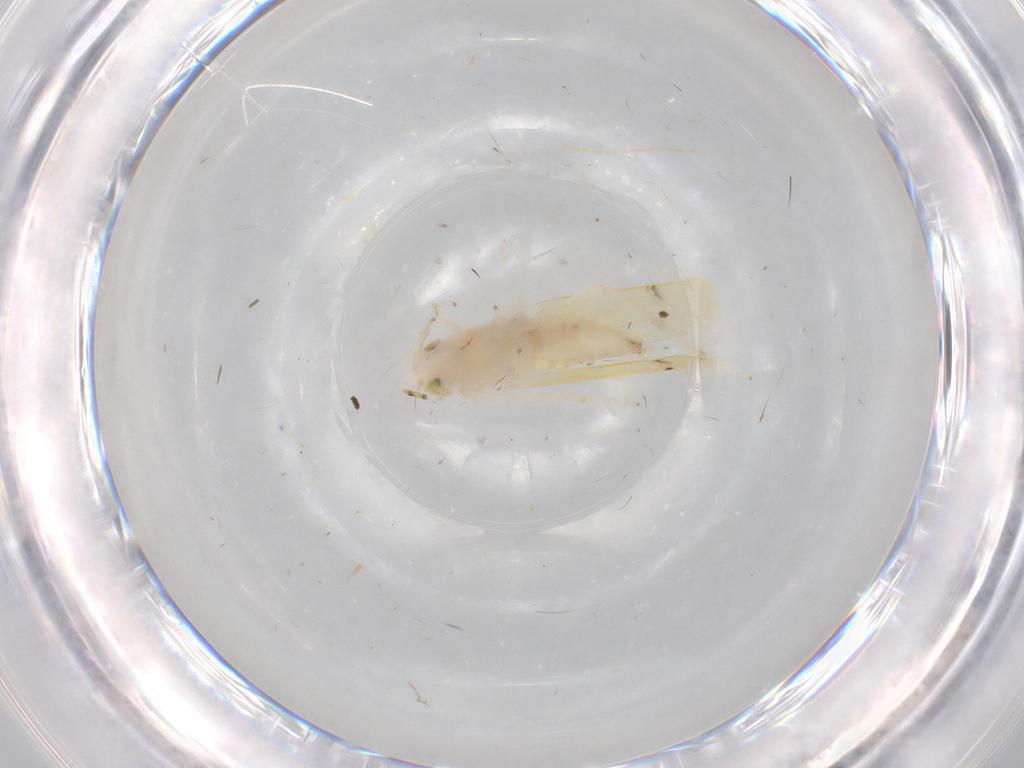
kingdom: Animalia
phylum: Arthropoda
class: Insecta
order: Hemiptera
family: Cicadellidae
